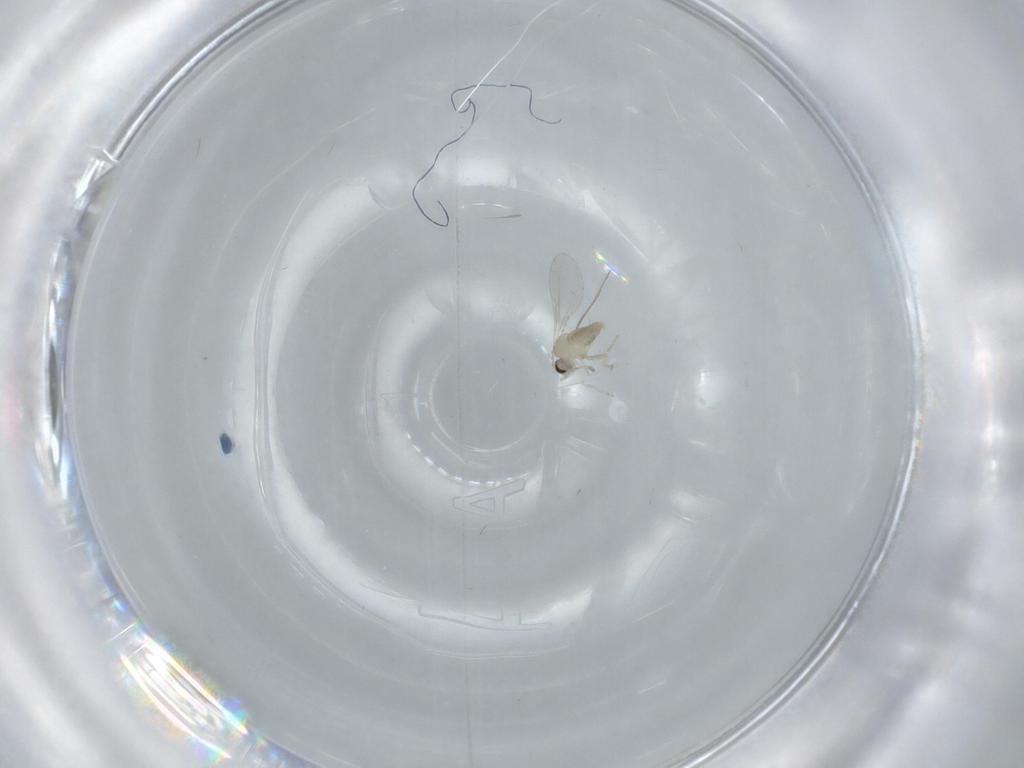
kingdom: Animalia
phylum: Arthropoda
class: Insecta
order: Diptera
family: Cecidomyiidae
